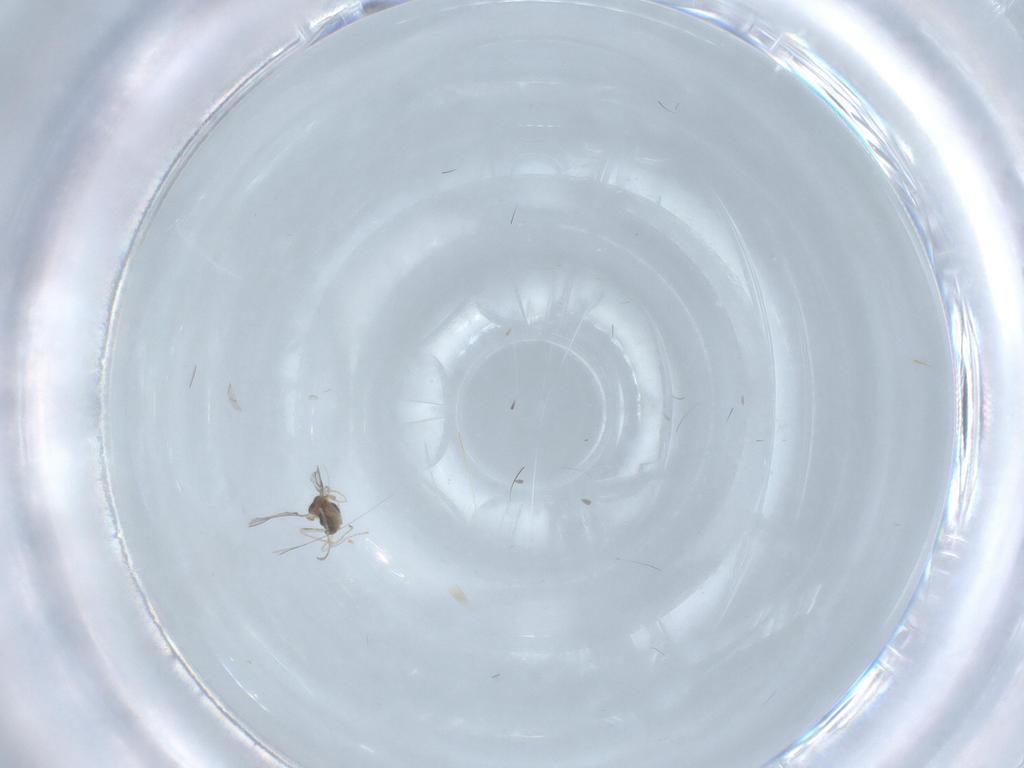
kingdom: Animalia
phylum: Arthropoda
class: Insecta
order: Diptera
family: Cecidomyiidae
